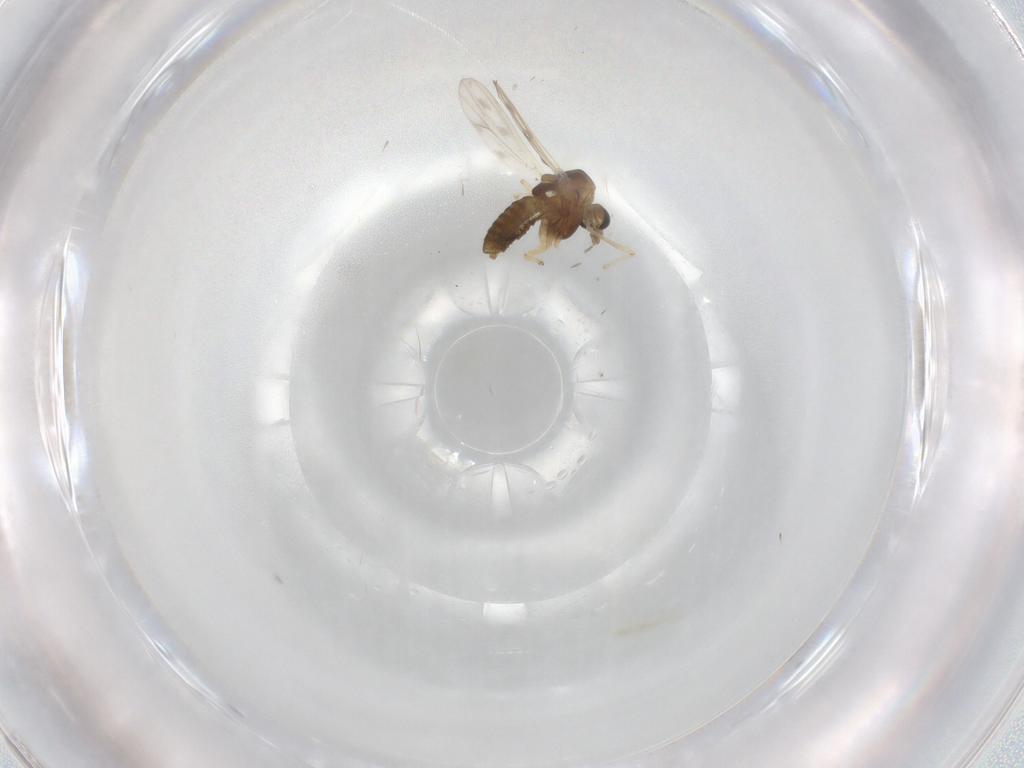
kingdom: Animalia
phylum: Arthropoda
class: Insecta
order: Diptera
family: Chironomidae
